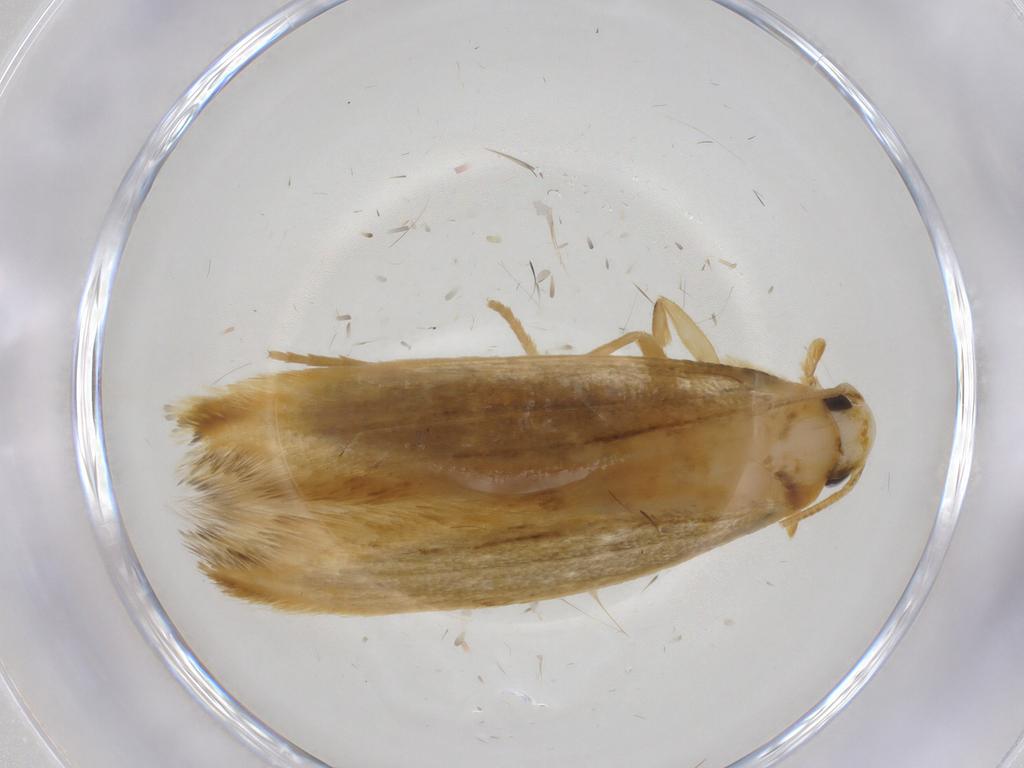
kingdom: Animalia
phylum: Arthropoda
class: Insecta
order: Lepidoptera
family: Tineidae
